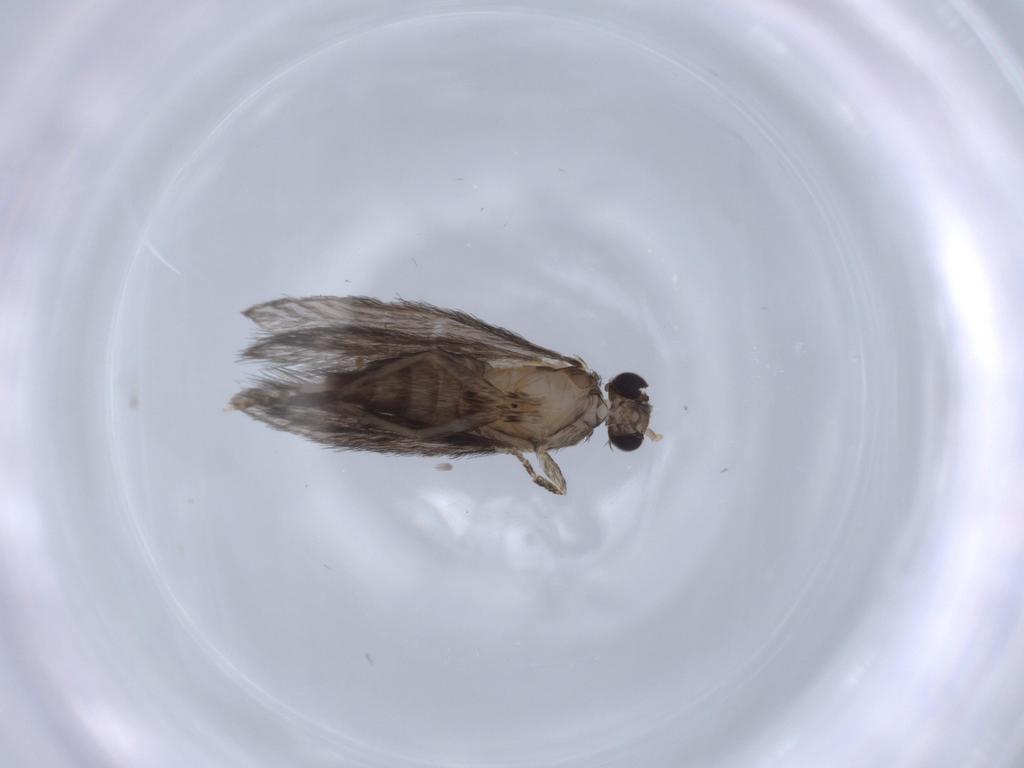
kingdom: Animalia
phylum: Arthropoda
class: Insecta
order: Trichoptera
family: Hydroptilidae
